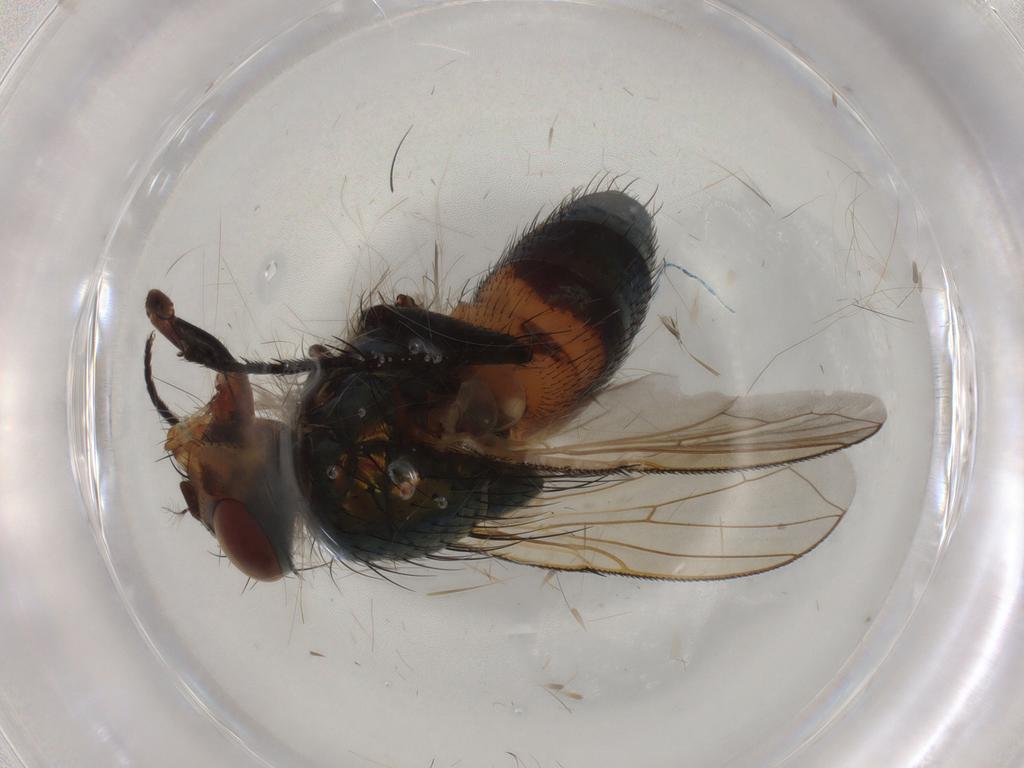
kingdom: Animalia
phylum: Arthropoda
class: Insecta
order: Diptera
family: Calliphoridae
